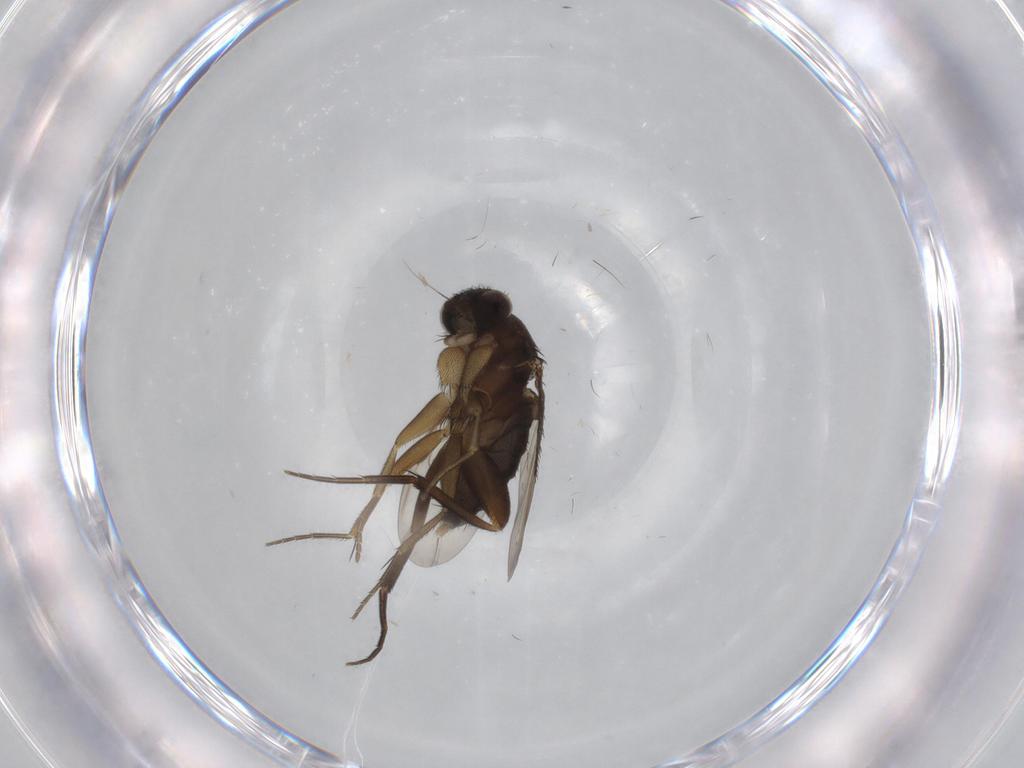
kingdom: Animalia
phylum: Arthropoda
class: Insecta
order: Diptera
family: Phoridae
